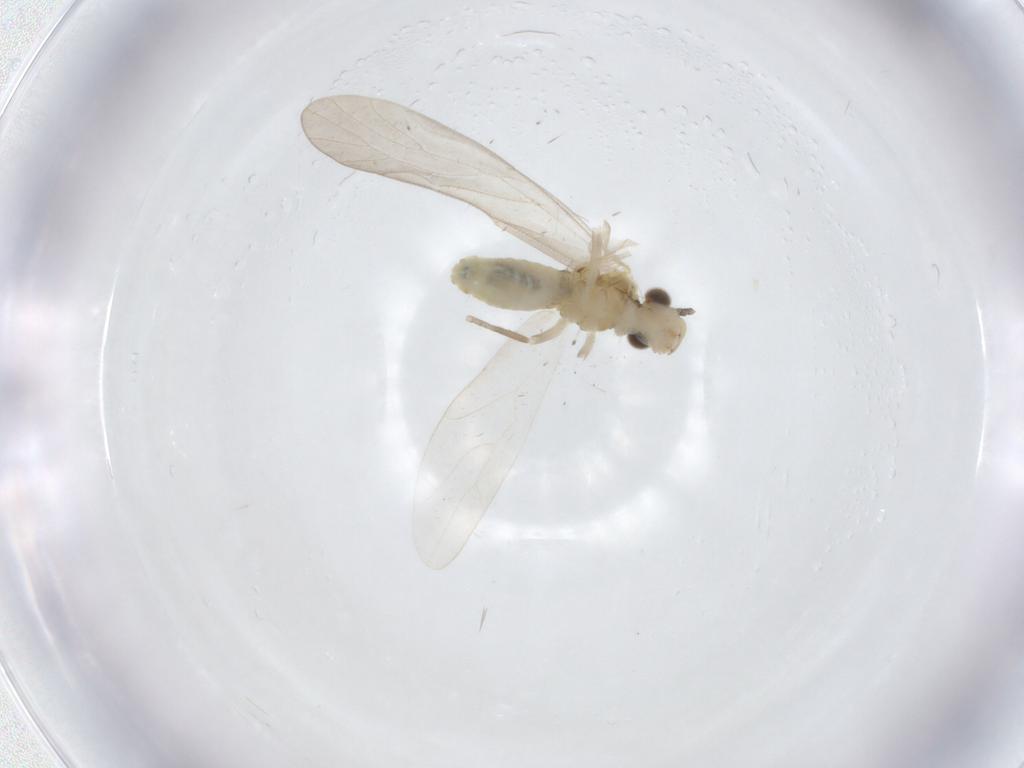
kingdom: Animalia
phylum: Arthropoda
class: Insecta
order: Psocodea
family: Caeciliusidae
